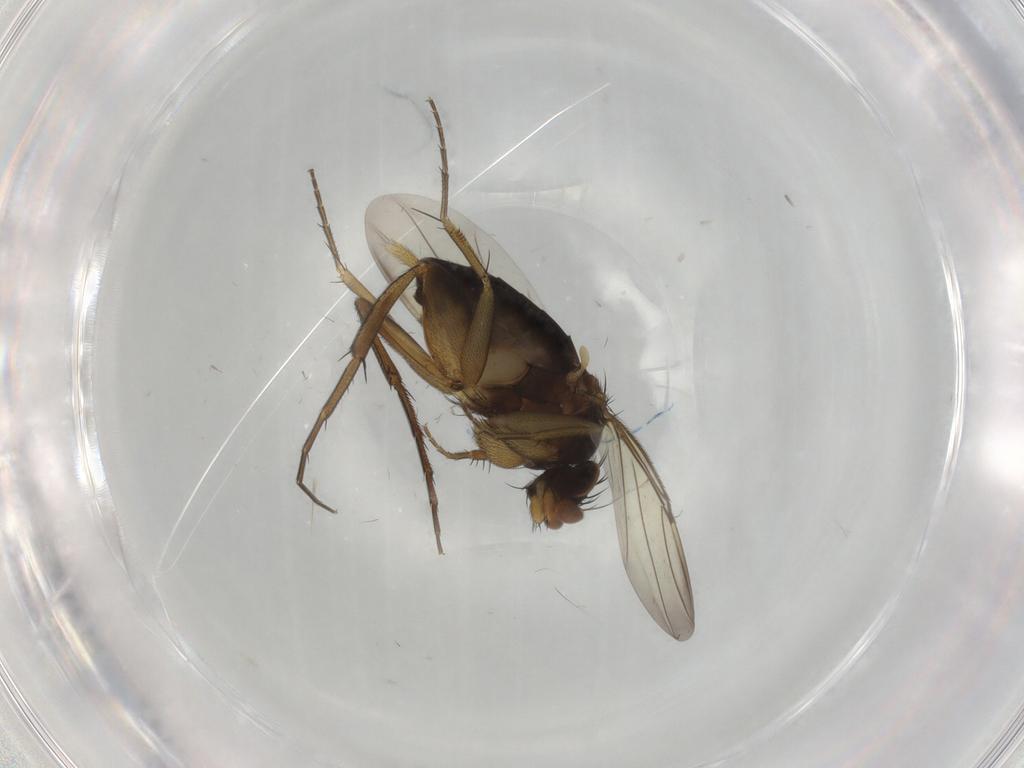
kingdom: Animalia
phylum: Arthropoda
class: Insecta
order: Diptera
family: Phoridae
